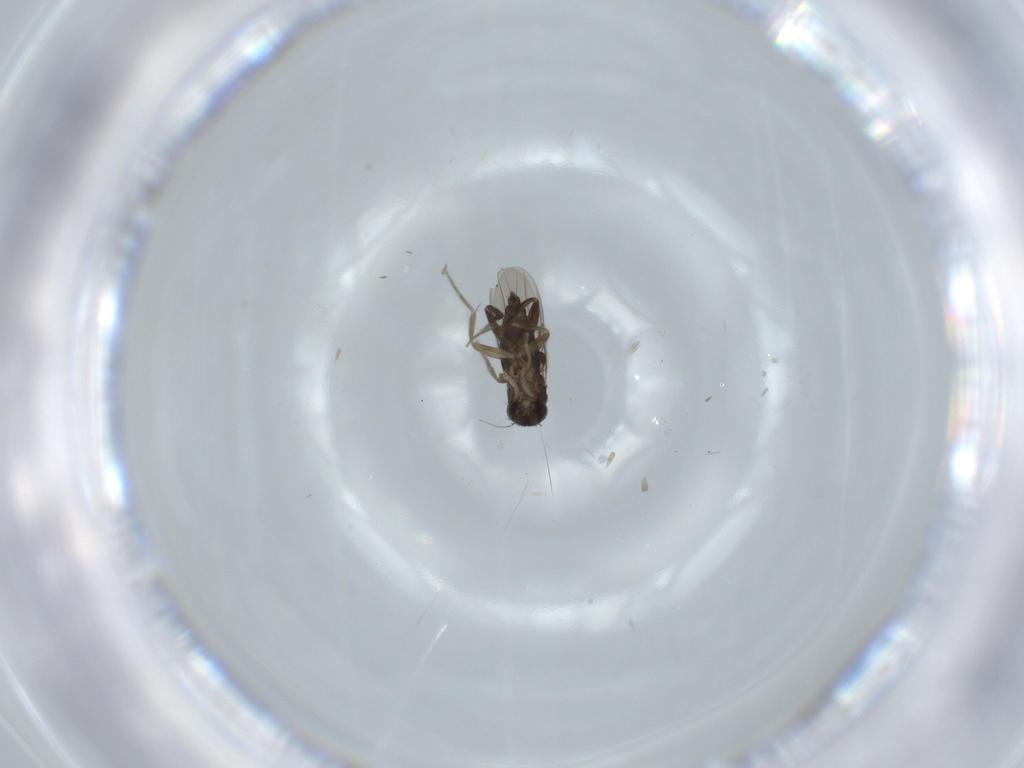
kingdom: Animalia
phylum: Arthropoda
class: Insecta
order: Diptera
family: Phoridae
